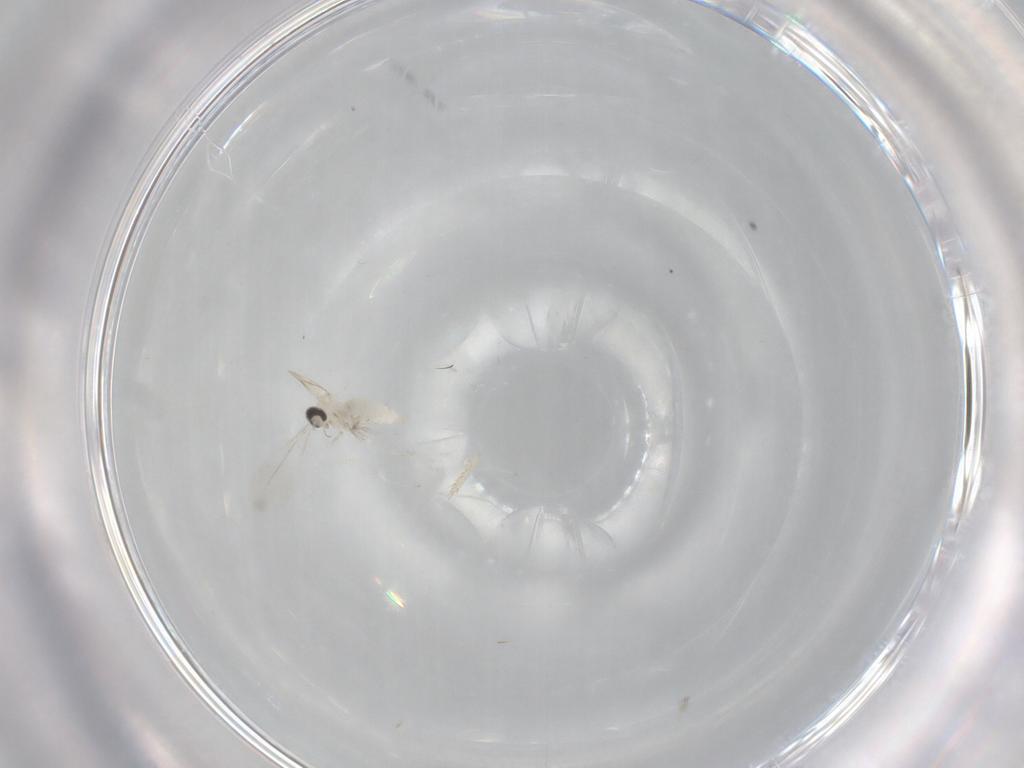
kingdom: Animalia
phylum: Arthropoda
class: Insecta
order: Diptera
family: Cecidomyiidae
